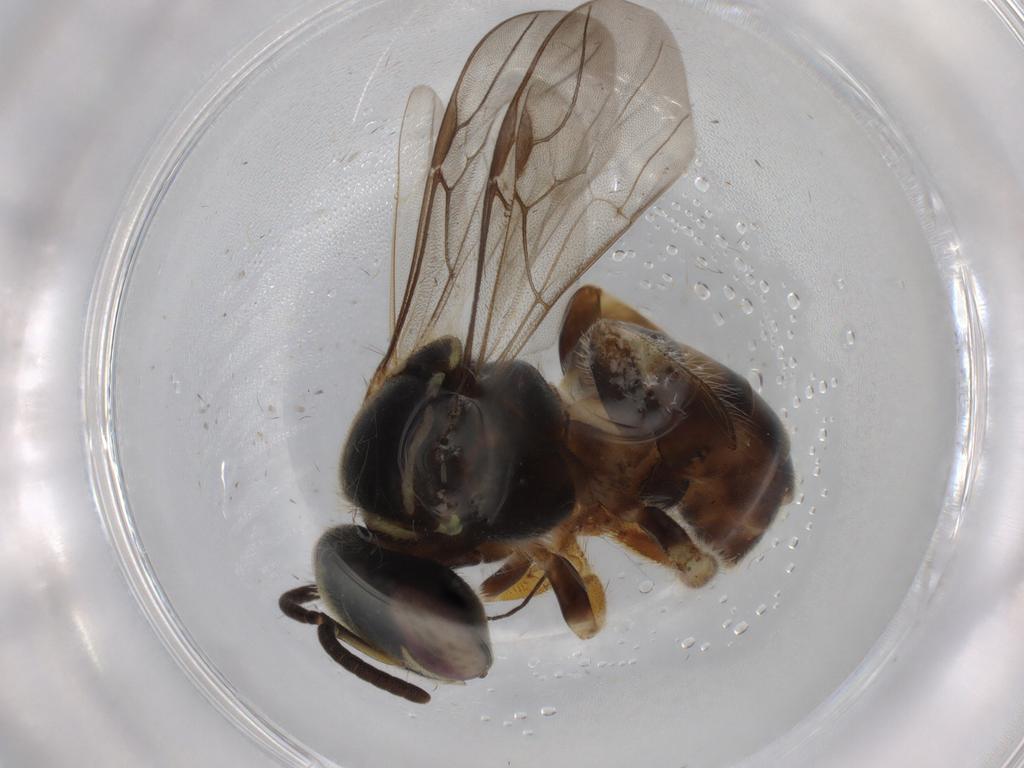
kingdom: Animalia
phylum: Arthropoda
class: Insecta
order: Hymenoptera
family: Apidae
